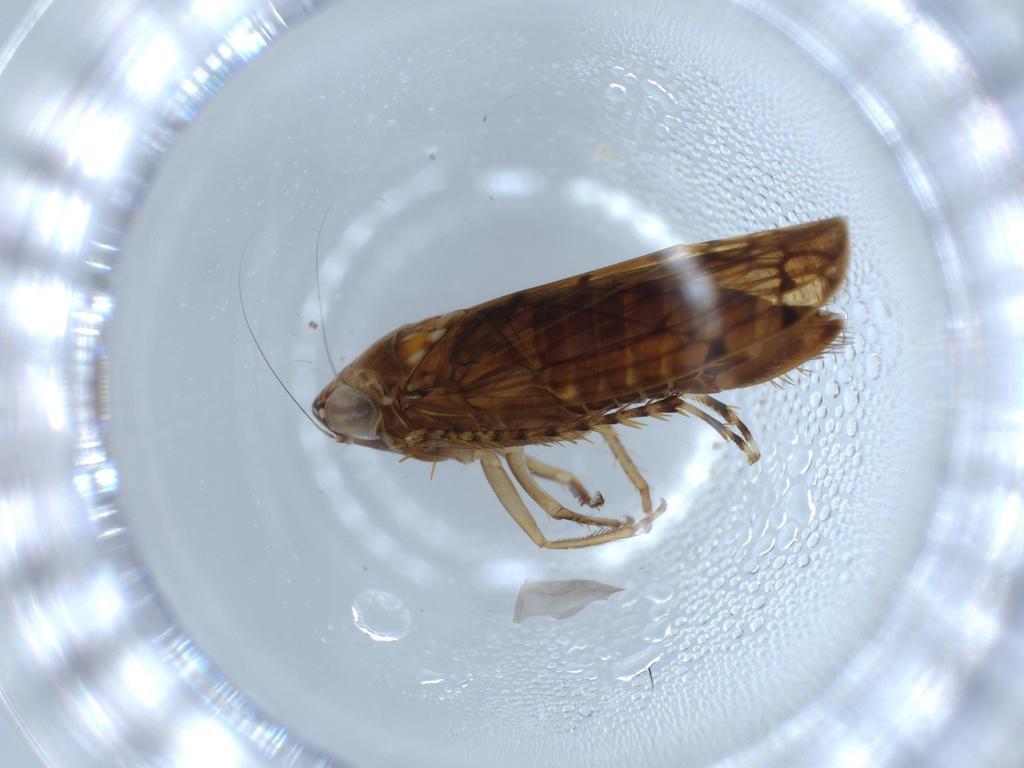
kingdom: Animalia
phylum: Arthropoda
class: Insecta
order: Hemiptera
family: Cicadellidae
